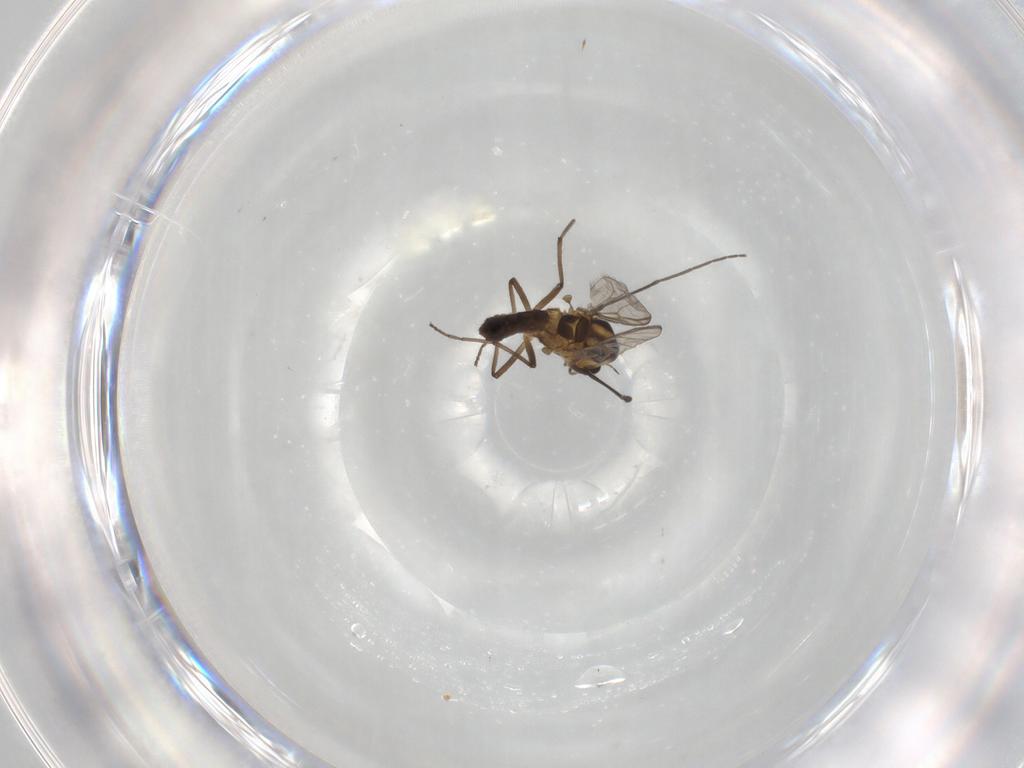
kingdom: Animalia
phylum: Arthropoda
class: Insecta
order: Diptera
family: Chironomidae
